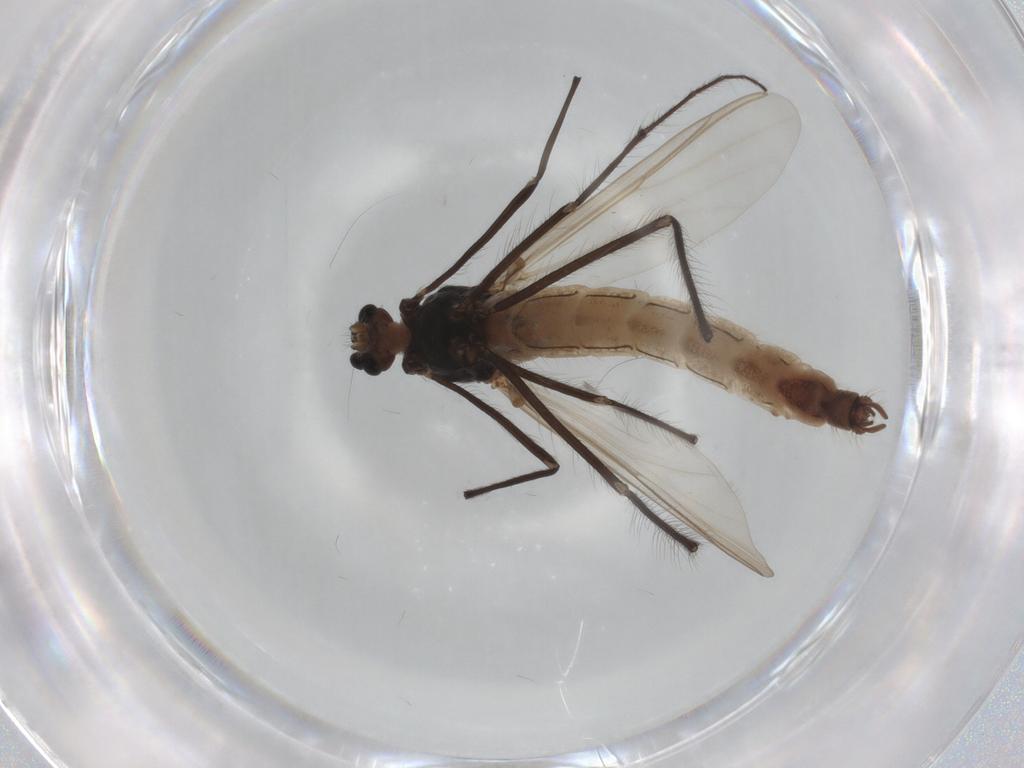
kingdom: Animalia
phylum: Arthropoda
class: Insecta
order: Diptera
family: Chironomidae
